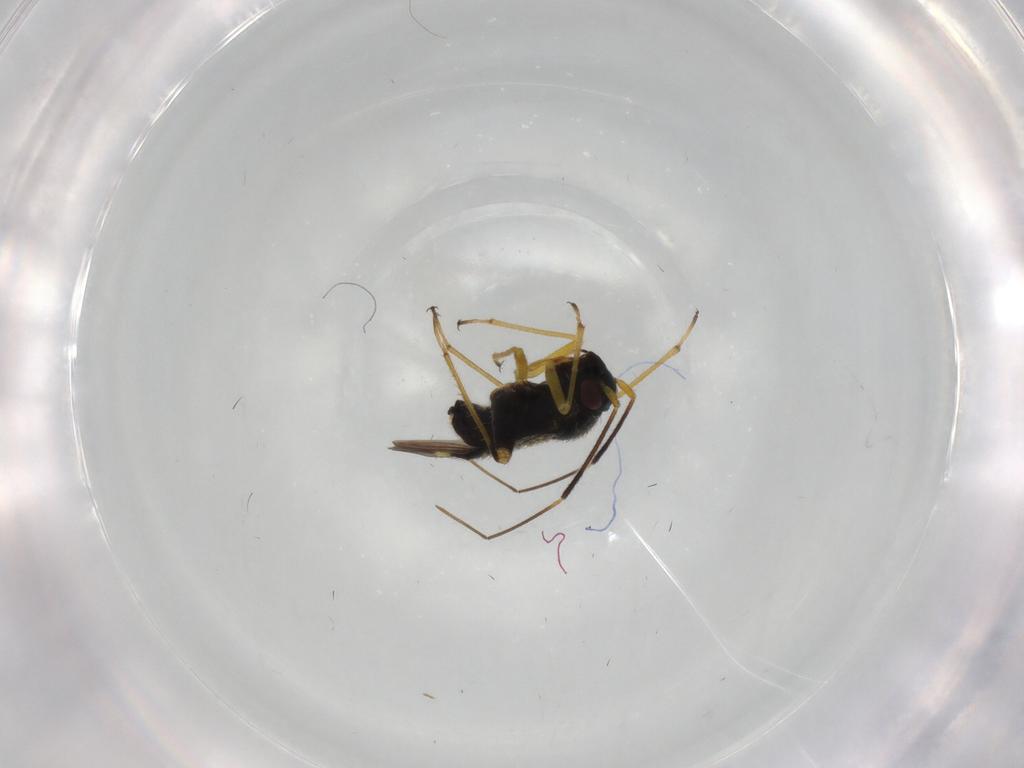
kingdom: Animalia
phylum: Arthropoda
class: Insecta
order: Hemiptera
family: Miridae
